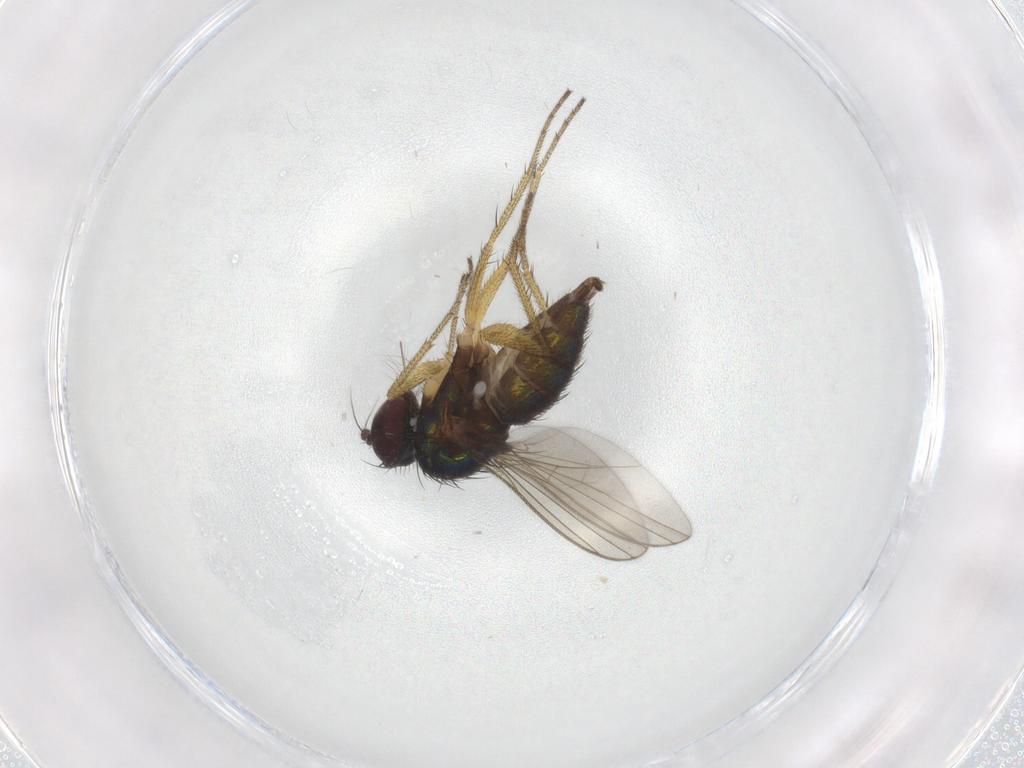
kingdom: Animalia
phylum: Arthropoda
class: Insecta
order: Diptera
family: Dolichopodidae
